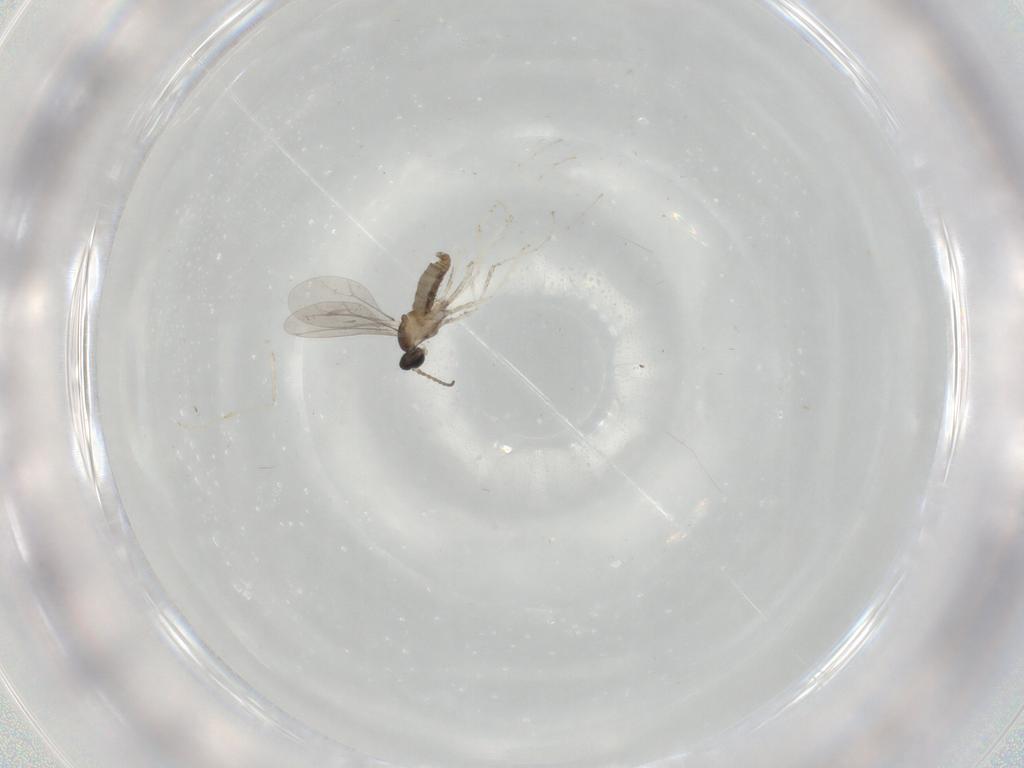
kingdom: Animalia
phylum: Arthropoda
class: Insecta
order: Diptera
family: Cecidomyiidae
